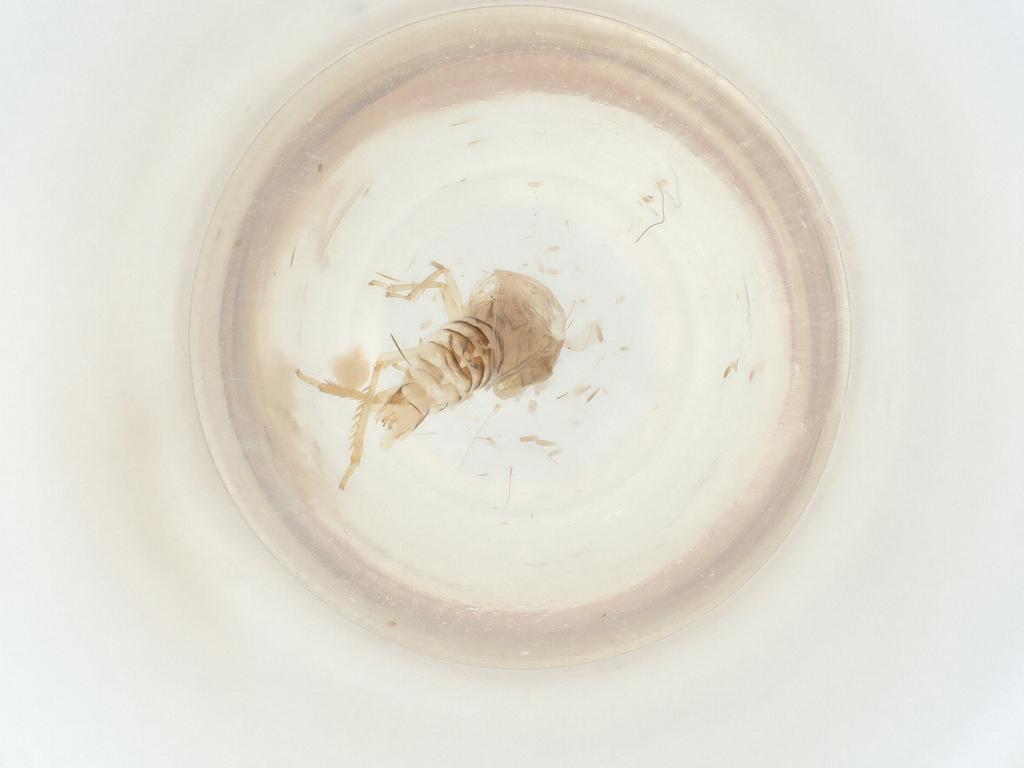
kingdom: Animalia
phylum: Arthropoda
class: Insecta
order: Hemiptera
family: Cicadellidae
